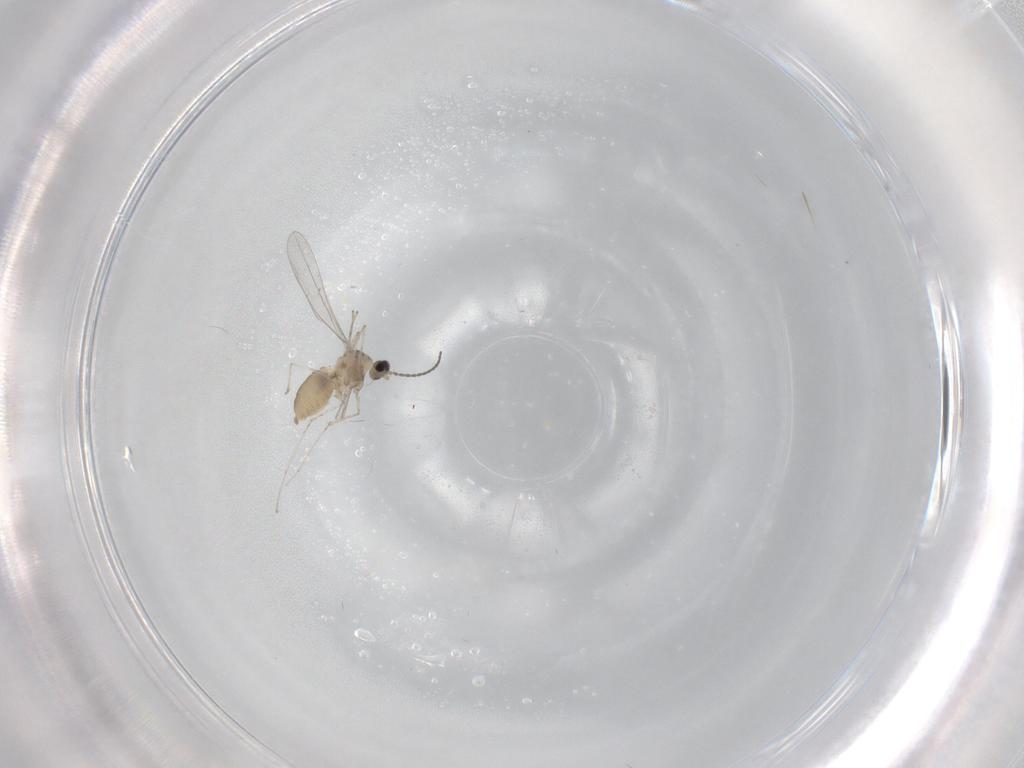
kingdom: Animalia
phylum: Arthropoda
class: Insecta
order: Diptera
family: Cecidomyiidae
